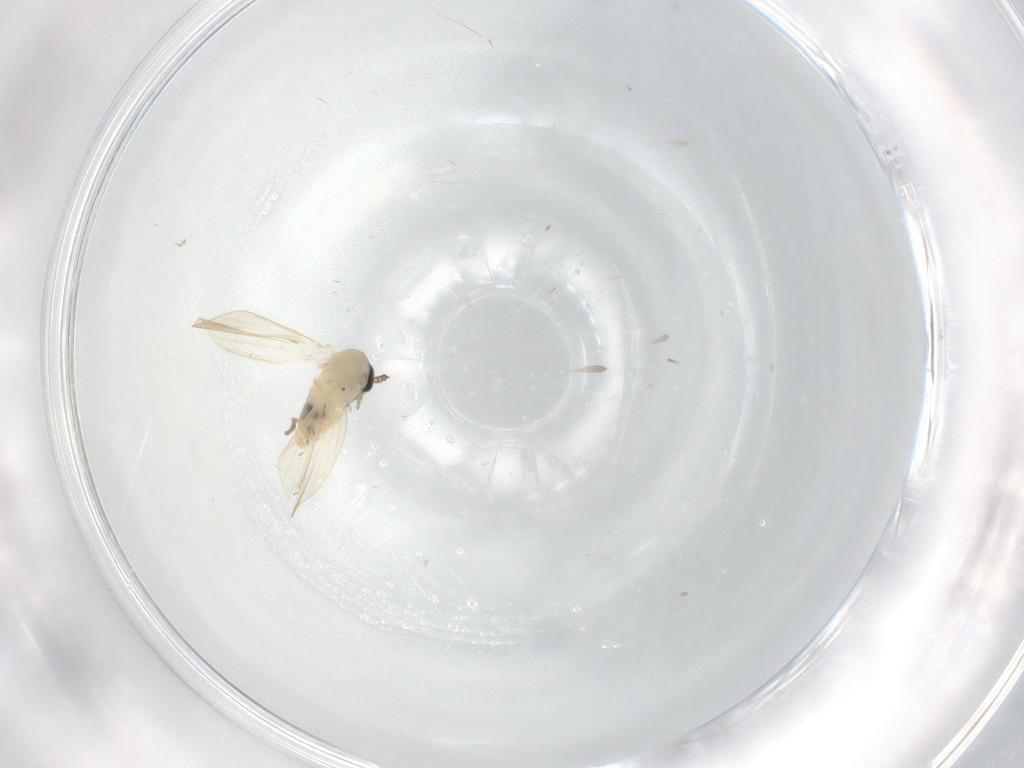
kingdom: Animalia
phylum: Arthropoda
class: Insecta
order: Diptera
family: Psychodidae
